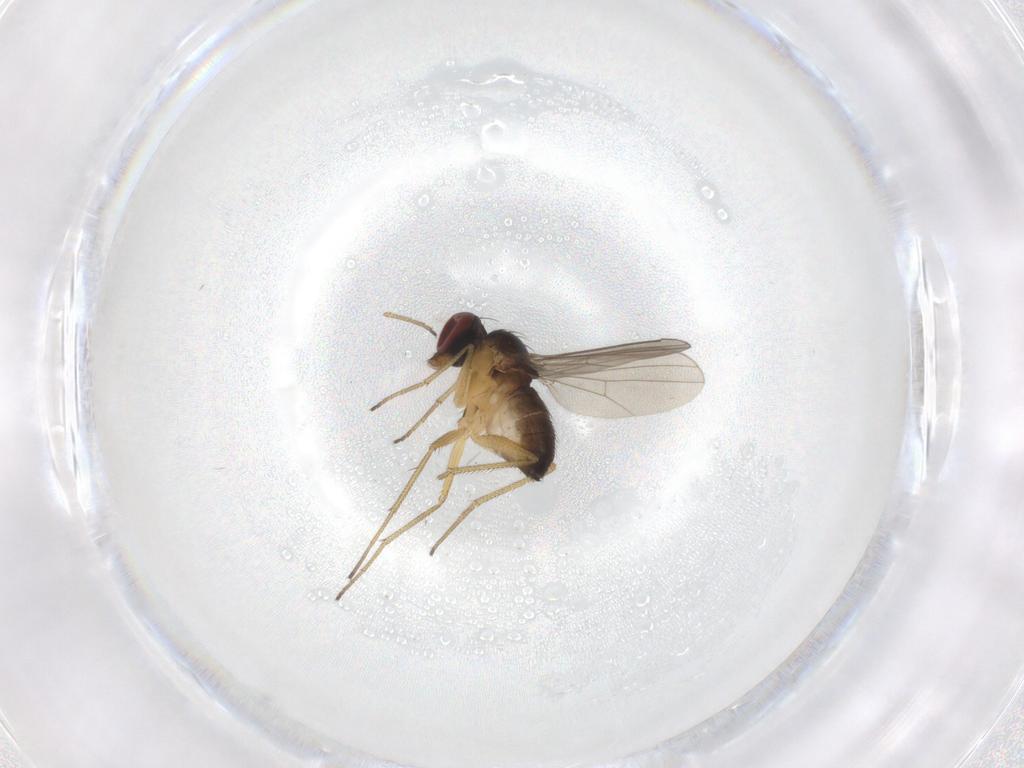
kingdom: Animalia
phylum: Arthropoda
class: Insecta
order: Diptera
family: Dolichopodidae
